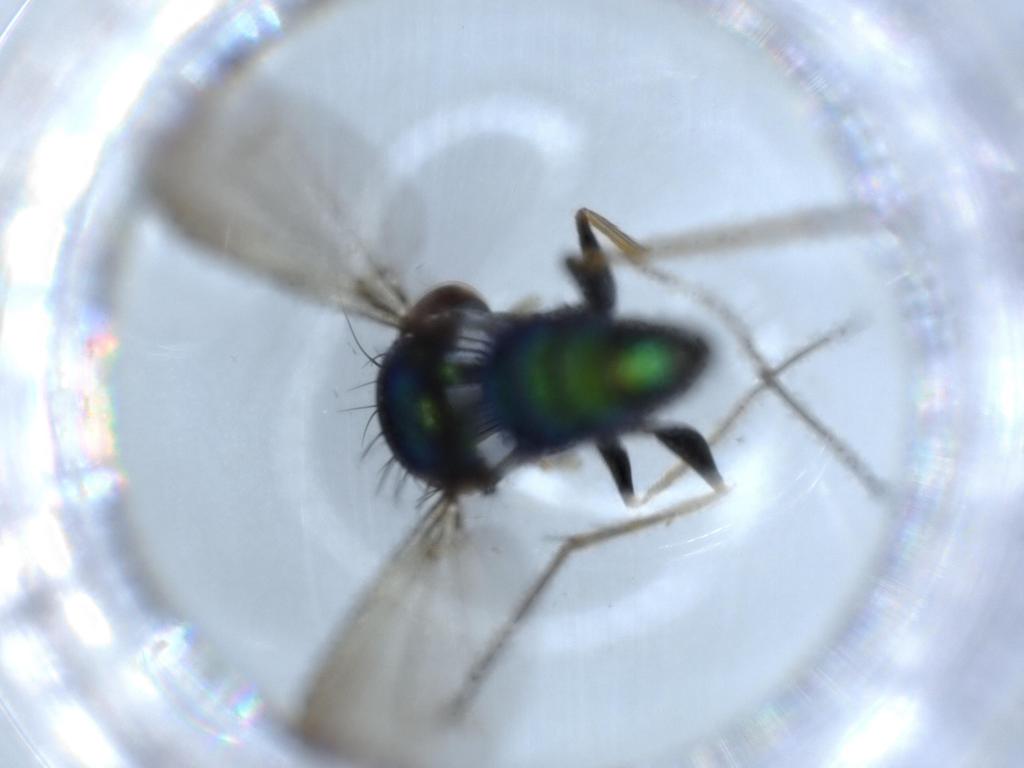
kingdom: Animalia
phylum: Arthropoda
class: Insecta
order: Diptera
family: Dolichopodidae
